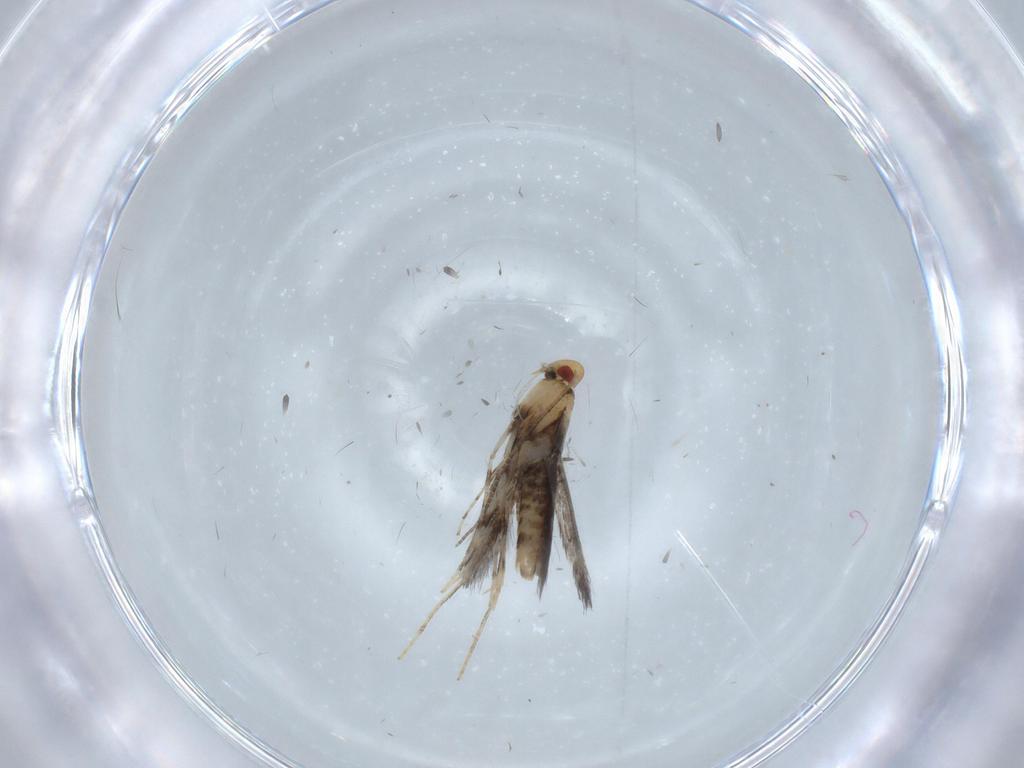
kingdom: Animalia
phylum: Arthropoda
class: Insecta
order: Lepidoptera
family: Gracillariidae
